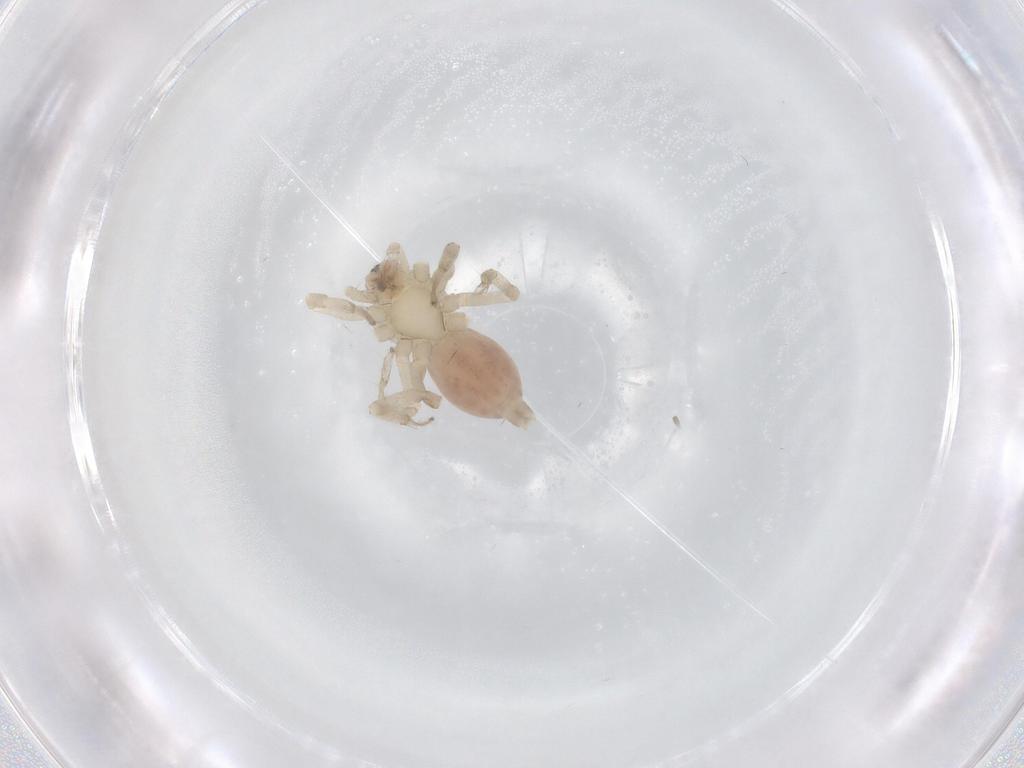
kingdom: Animalia
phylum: Arthropoda
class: Arachnida
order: Araneae
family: Anyphaenidae
